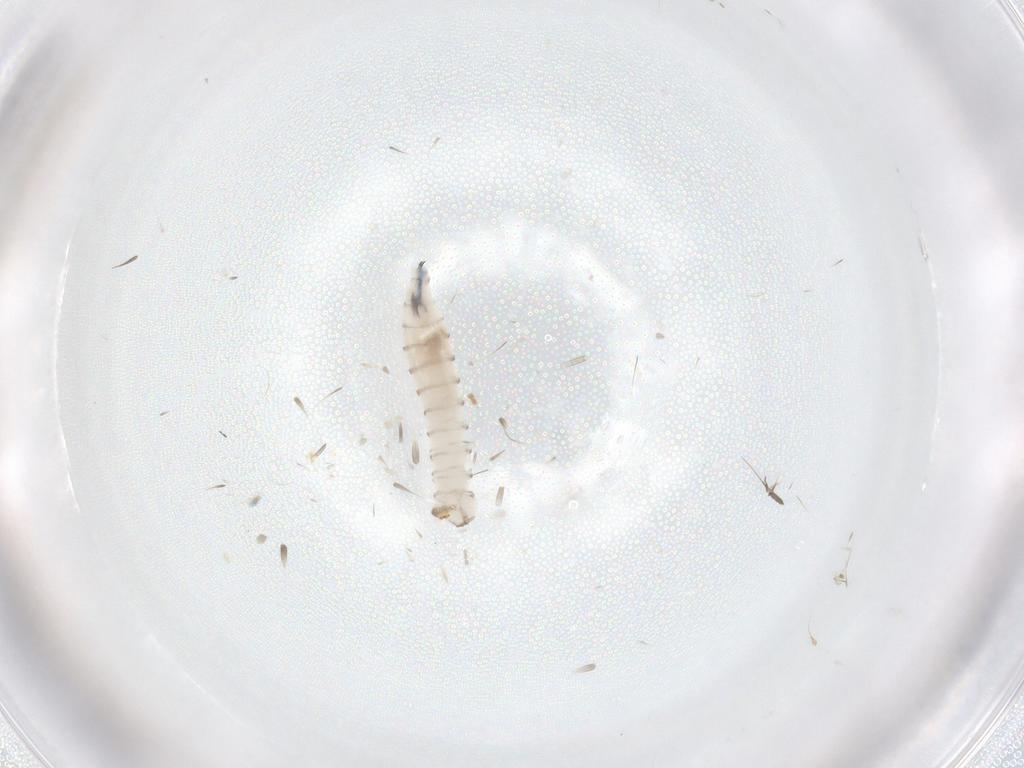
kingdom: Animalia
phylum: Arthropoda
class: Insecta
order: Diptera
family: Sarcophagidae
